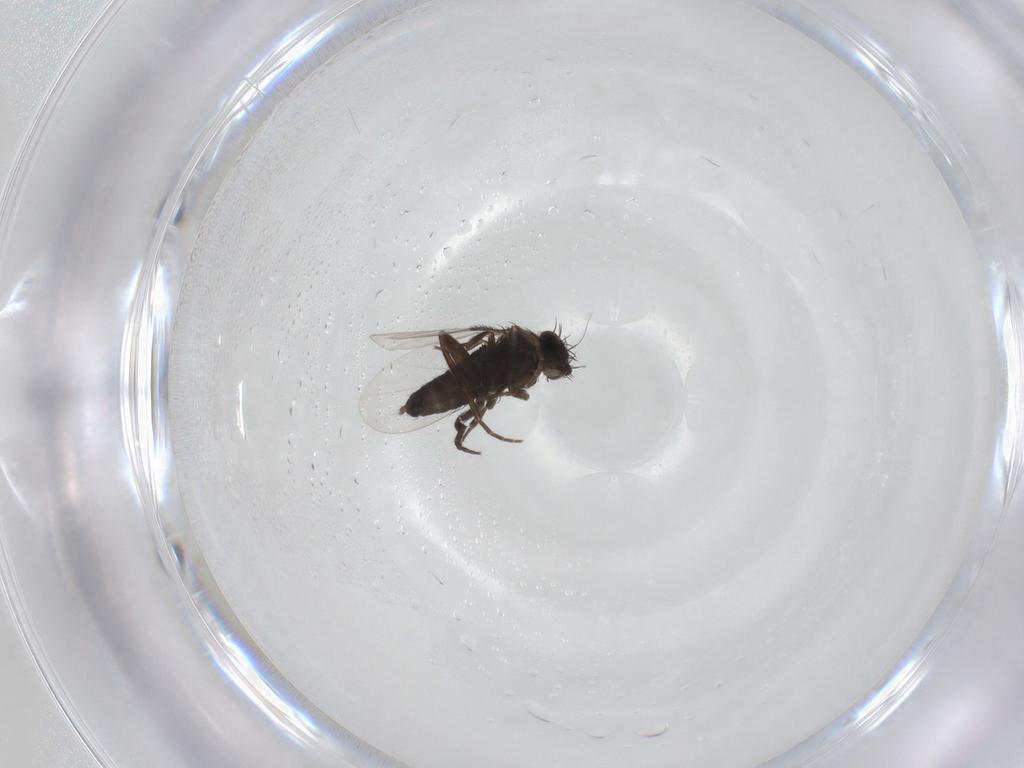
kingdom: Animalia
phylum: Arthropoda
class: Insecta
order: Diptera
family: Phoridae
